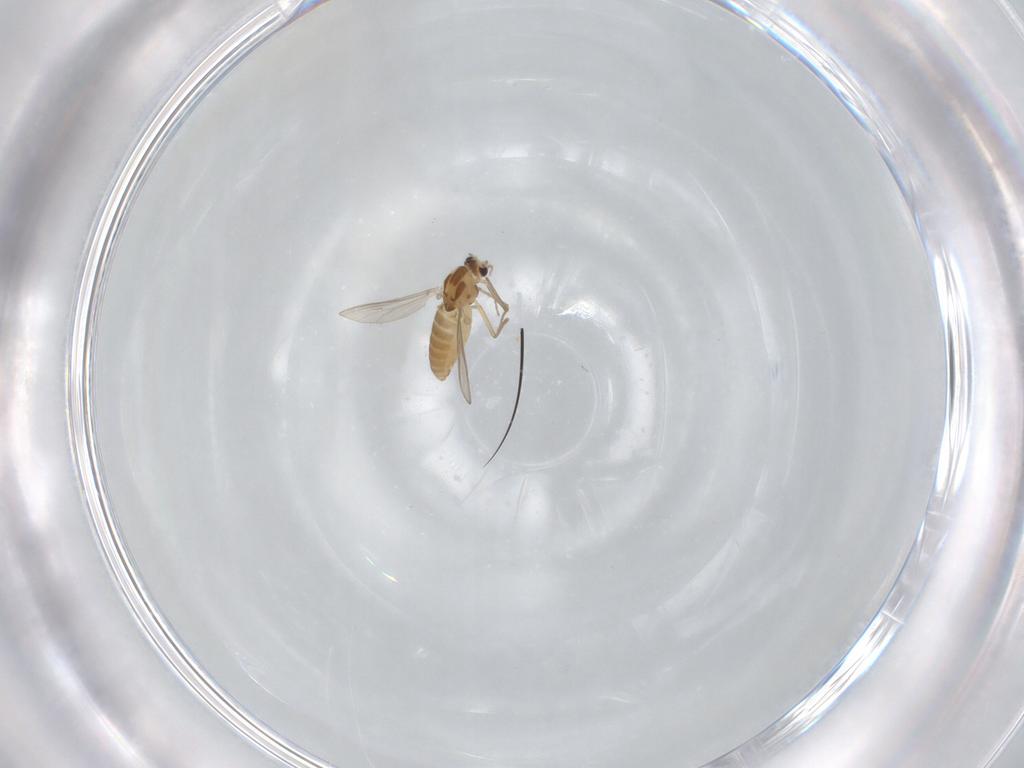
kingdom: Animalia
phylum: Arthropoda
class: Insecta
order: Diptera
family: Chironomidae
